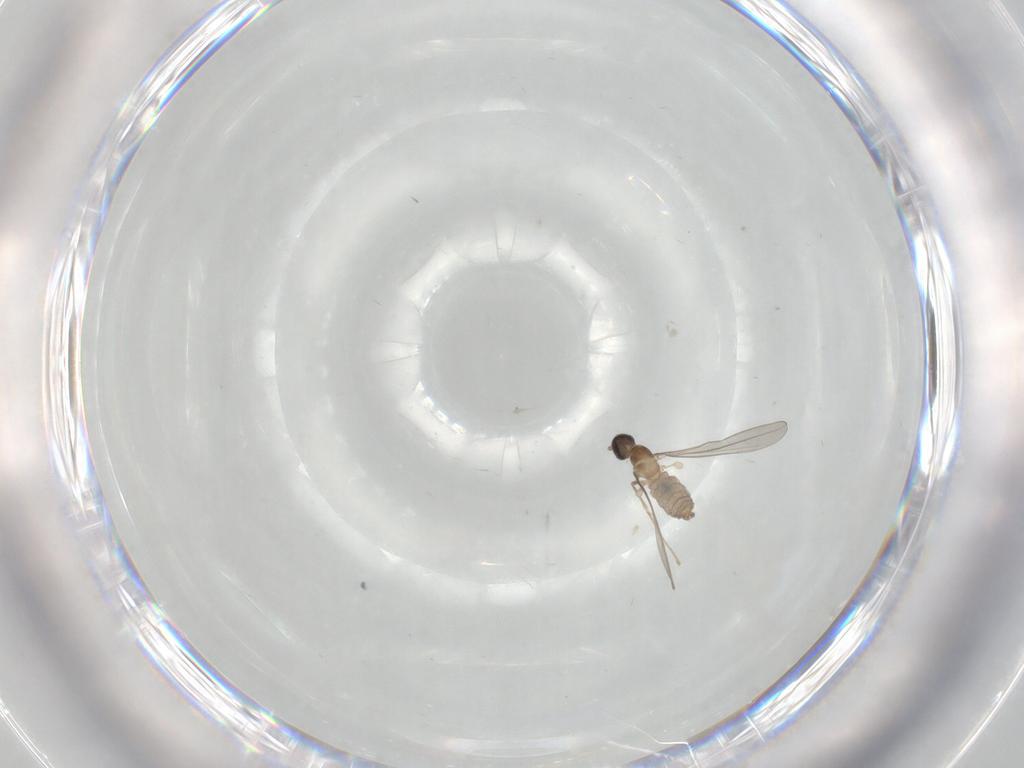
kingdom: Animalia
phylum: Arthropoda
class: Insecta
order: Diptera
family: Cecidomyiidae
